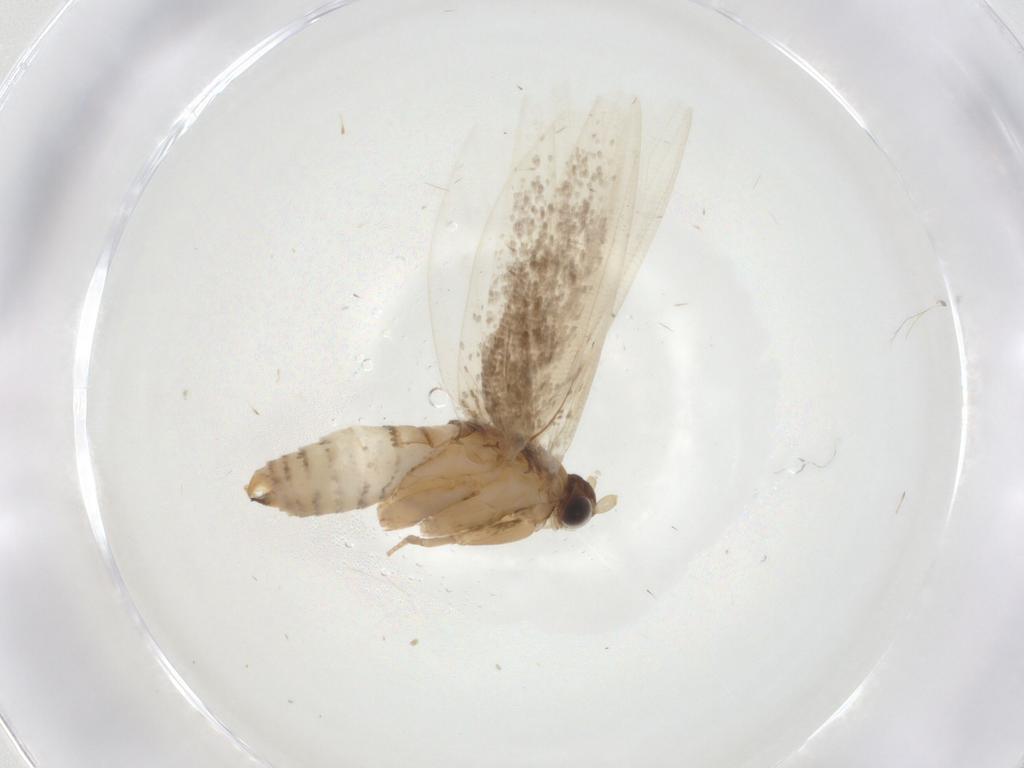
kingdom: Animalia
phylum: Arthropoda
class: Insecta
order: Lepidoptera
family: Tineidae
